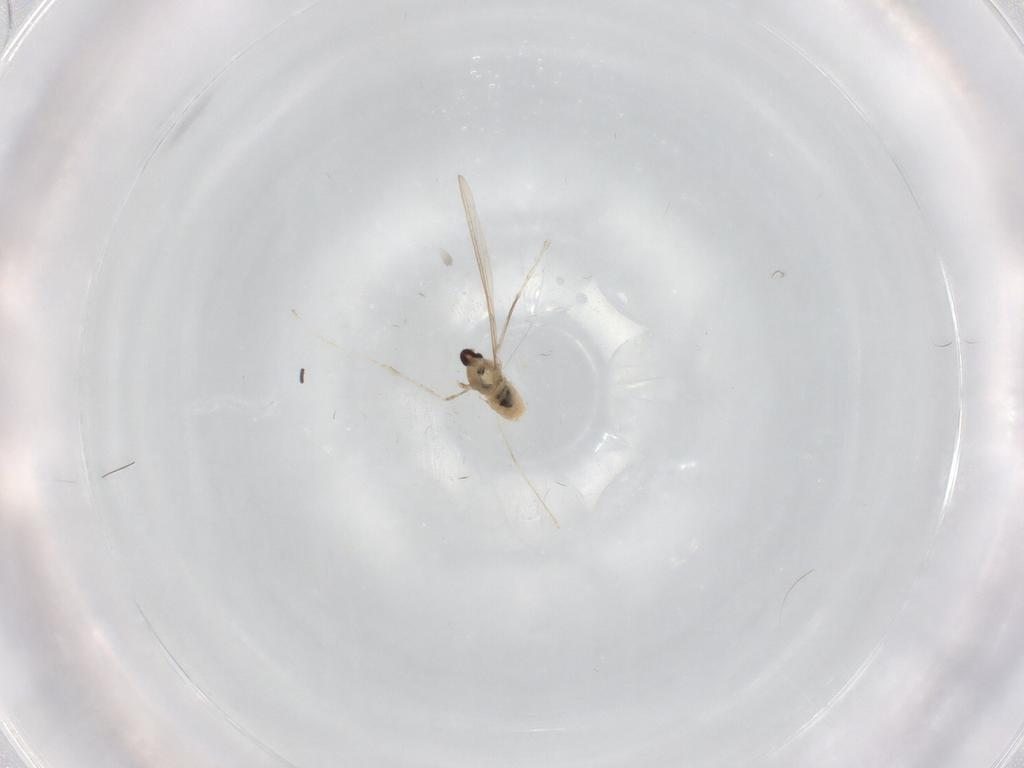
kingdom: Animalia
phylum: Arthropoda
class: Insecta
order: Diptera
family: Cecidomyiidae
